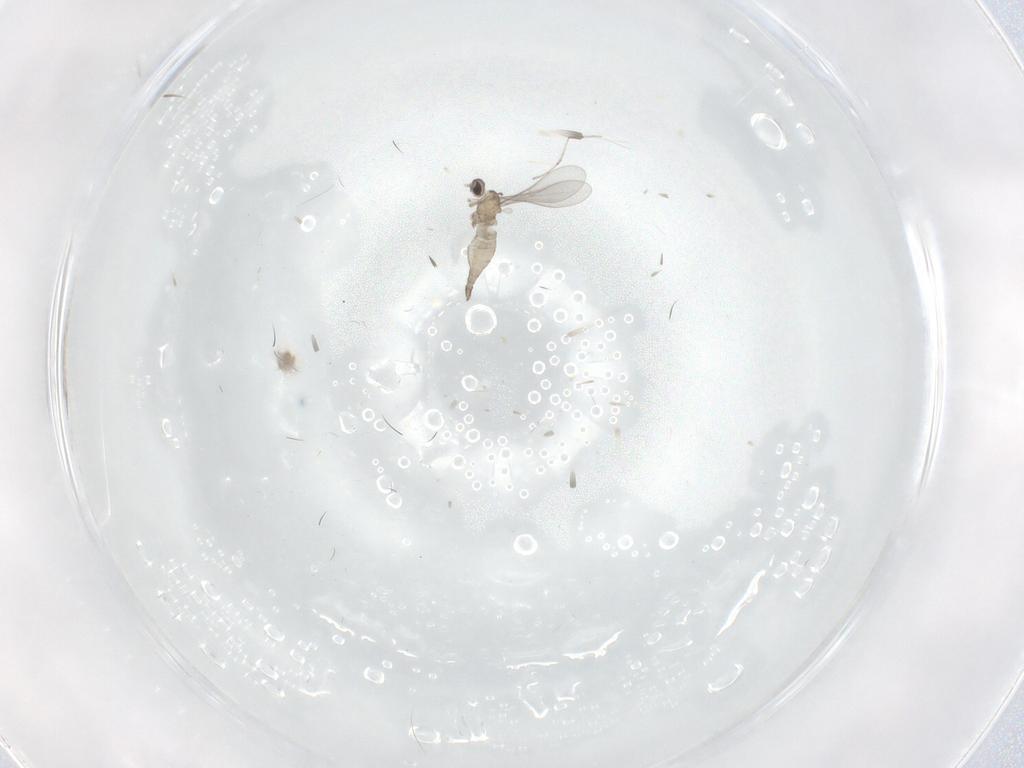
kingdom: Animalia
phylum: Arthropoda
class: Insecta
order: Diptera
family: Cecidomyiidae
